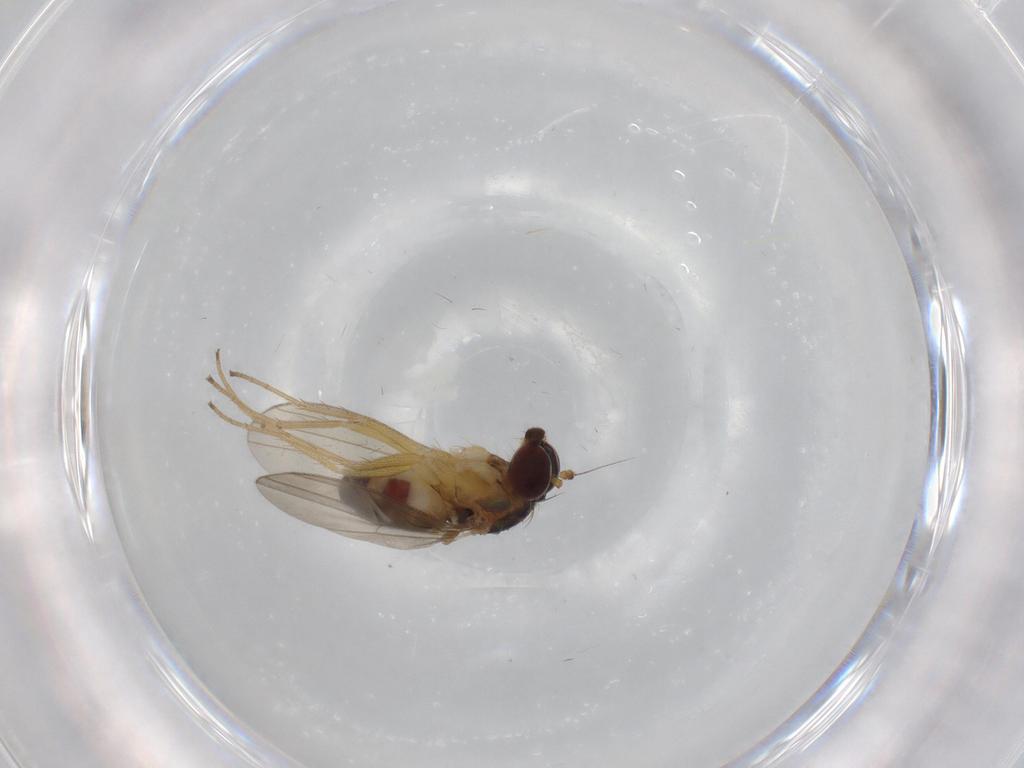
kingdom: Animalia
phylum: Arthropoda
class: Insecta
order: Diptera
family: Dolichopodidae
